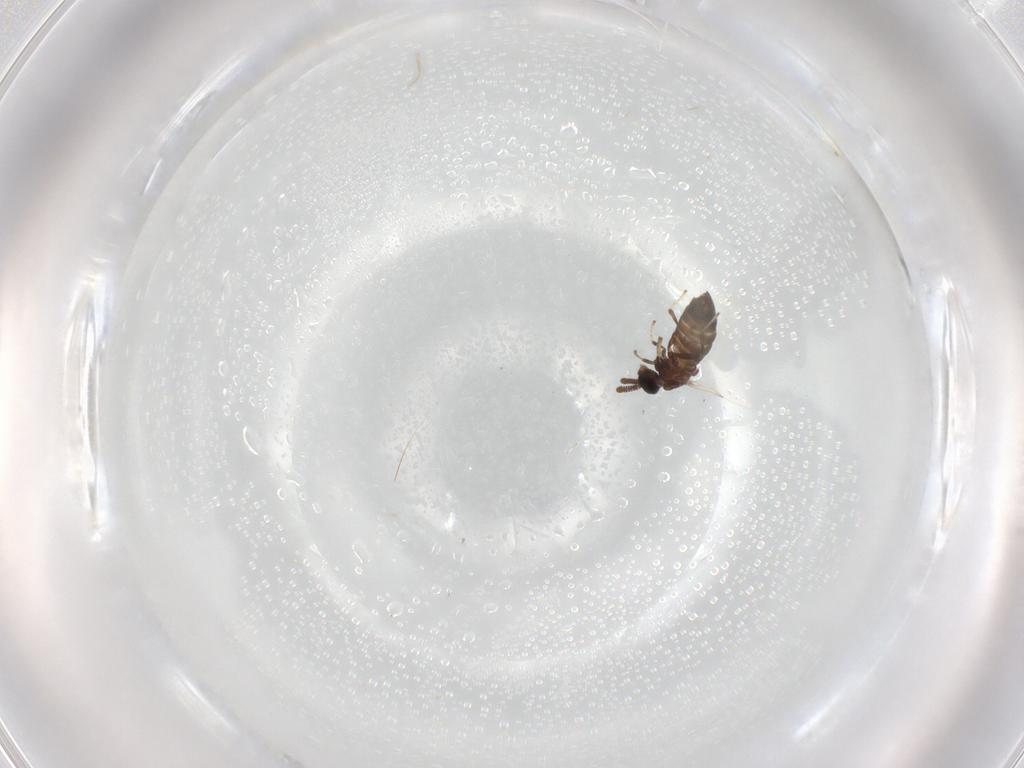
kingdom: Animalia
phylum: Arthropoda
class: Insecta
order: Diptera
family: Scatopsidae
